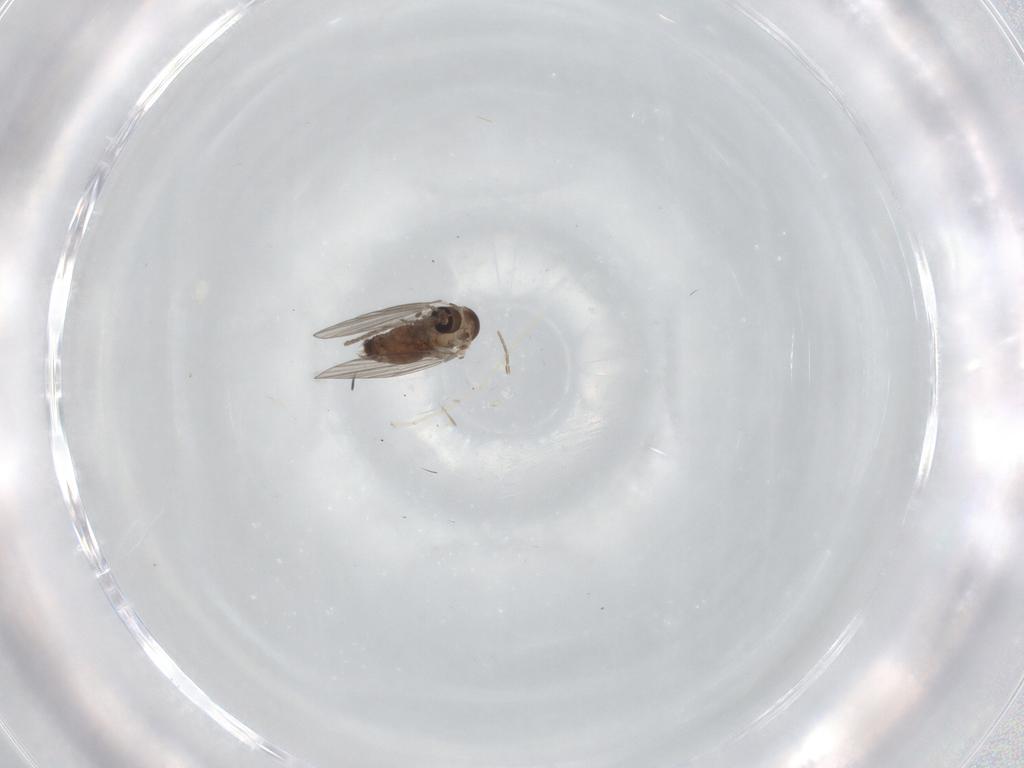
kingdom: Animalia
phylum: Arthropoda
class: Insecta
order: Diptera
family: Psychodidae
